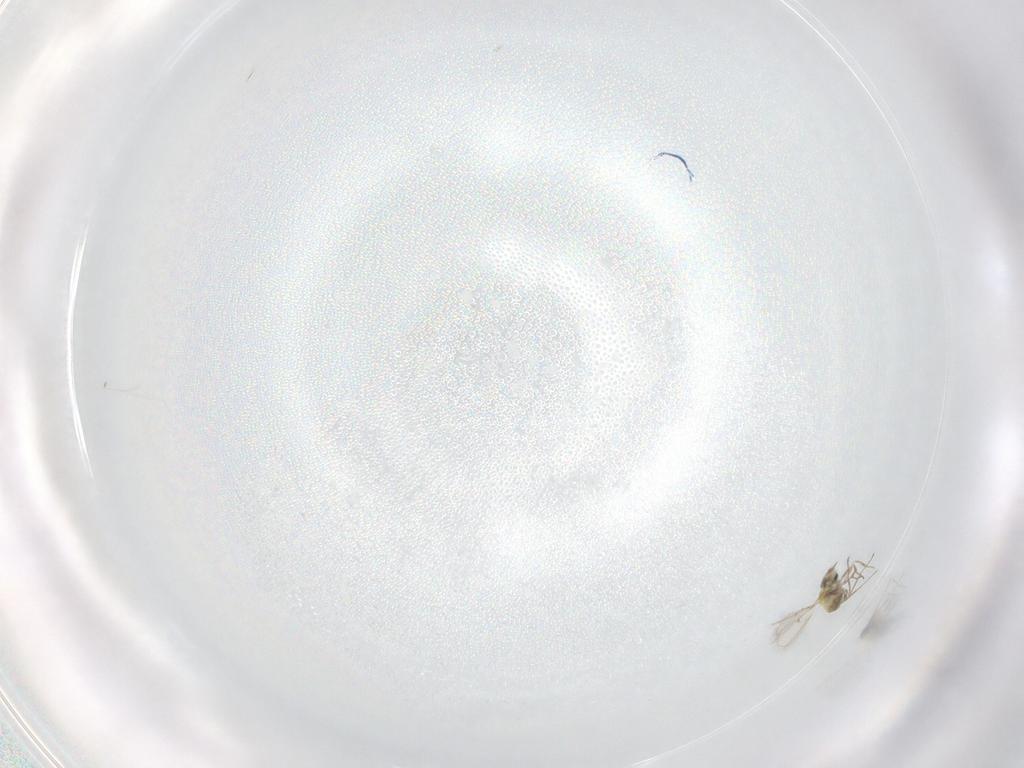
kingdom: Animalia
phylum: Arthropoda
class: Insecta
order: Hymenoptera
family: Trichogrammatidae
